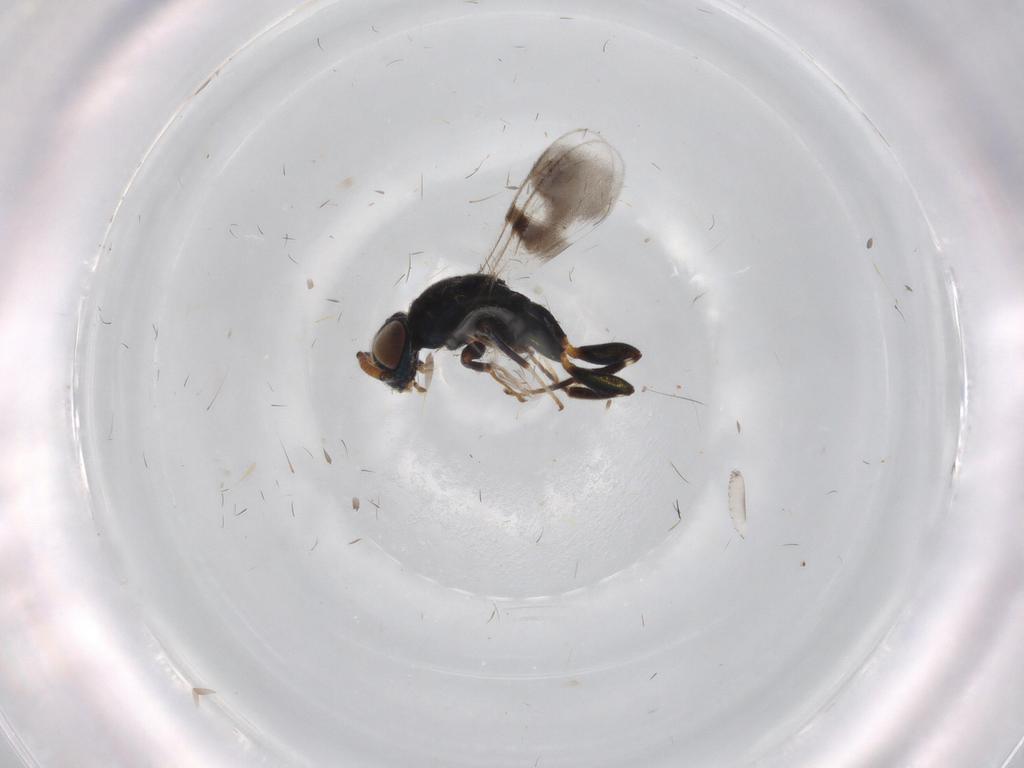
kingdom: Animalia
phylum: Arthropoda
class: Insecta
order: Hymenoptera
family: Cleonyminae
